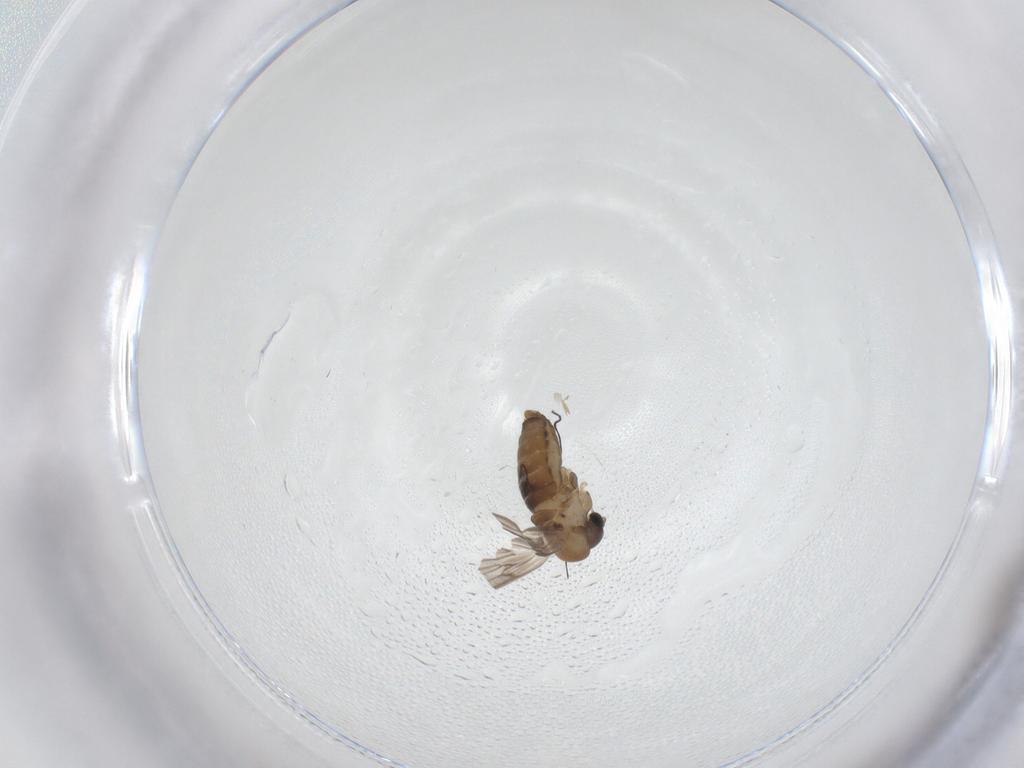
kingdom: Animalia
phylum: Arthropoda
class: Insecta
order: Diptera
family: Psychodidae
